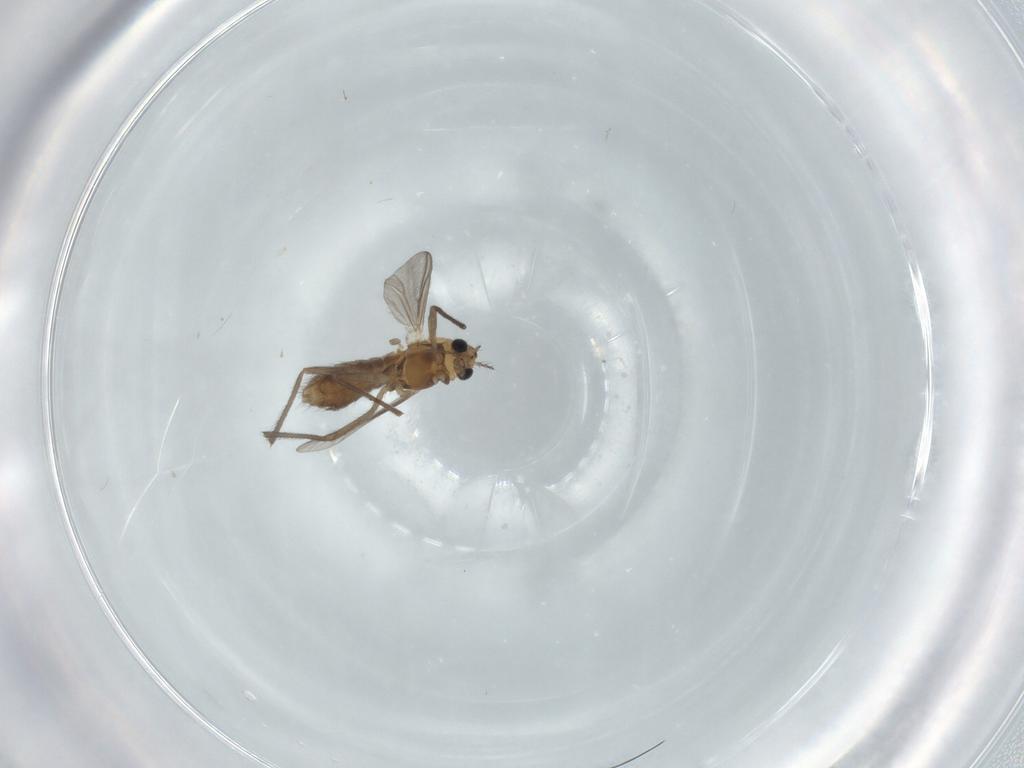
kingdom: Animalia
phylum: Arthropoda
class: Insecta
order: Diptera
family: Chironomidae
